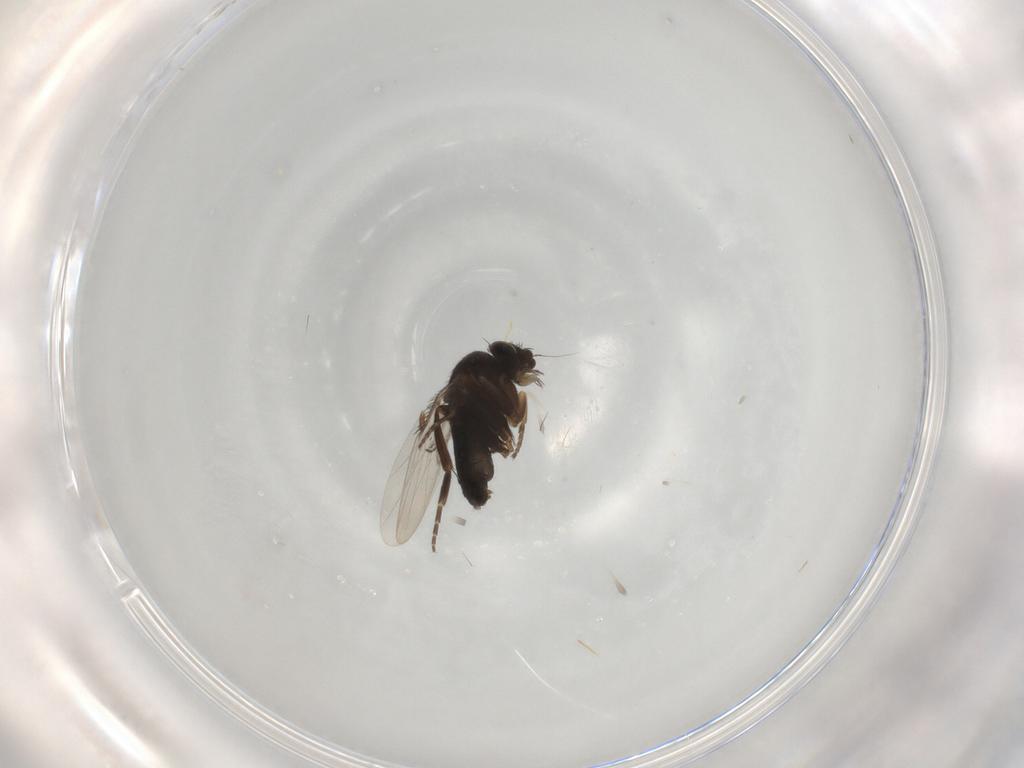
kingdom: Animalia
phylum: Arthropoda
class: Insecta
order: Diptera
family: Phoridae
